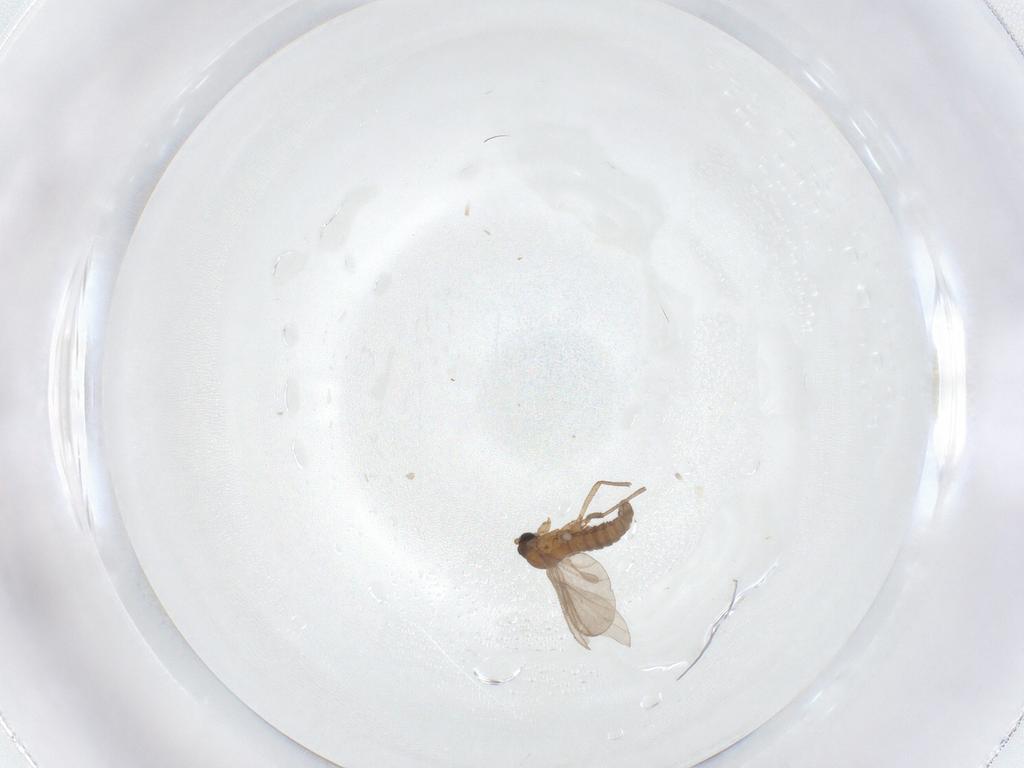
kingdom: Animalia
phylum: Arthropoda
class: Insecta
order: Diptera
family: Sciaridae
